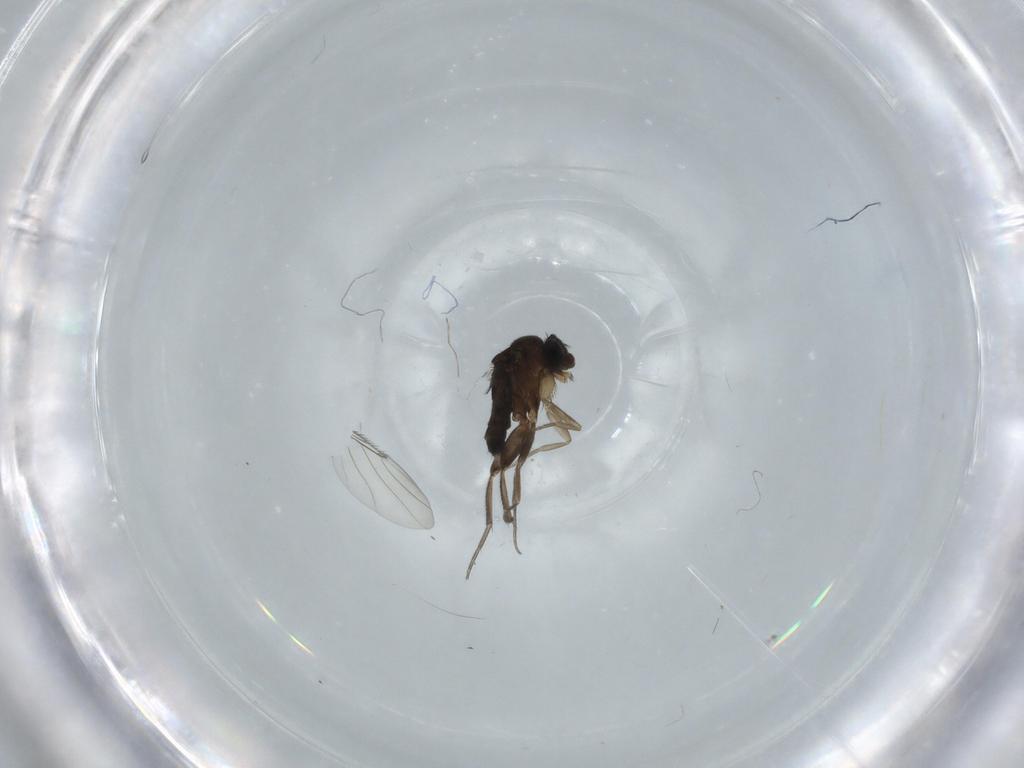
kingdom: Animalia
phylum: Arthropoda
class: Insecta
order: Diptera
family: Phoridae
